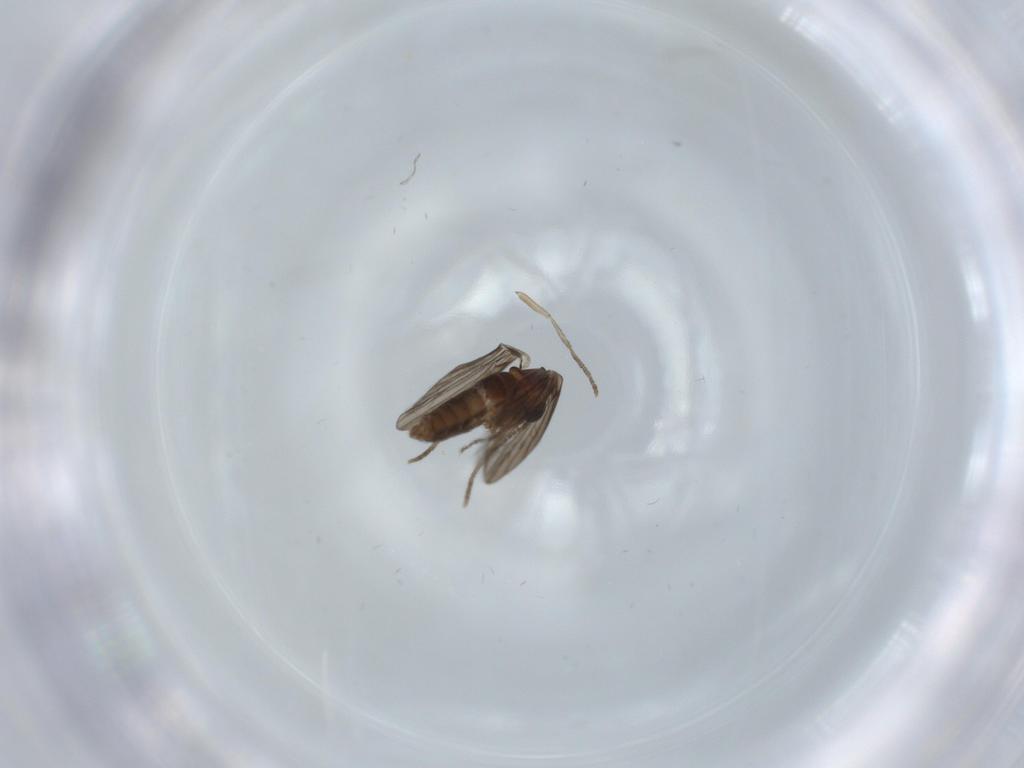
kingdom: Animalia
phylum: Arthropoda
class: Insecta
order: Diptera
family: Psychodidae
